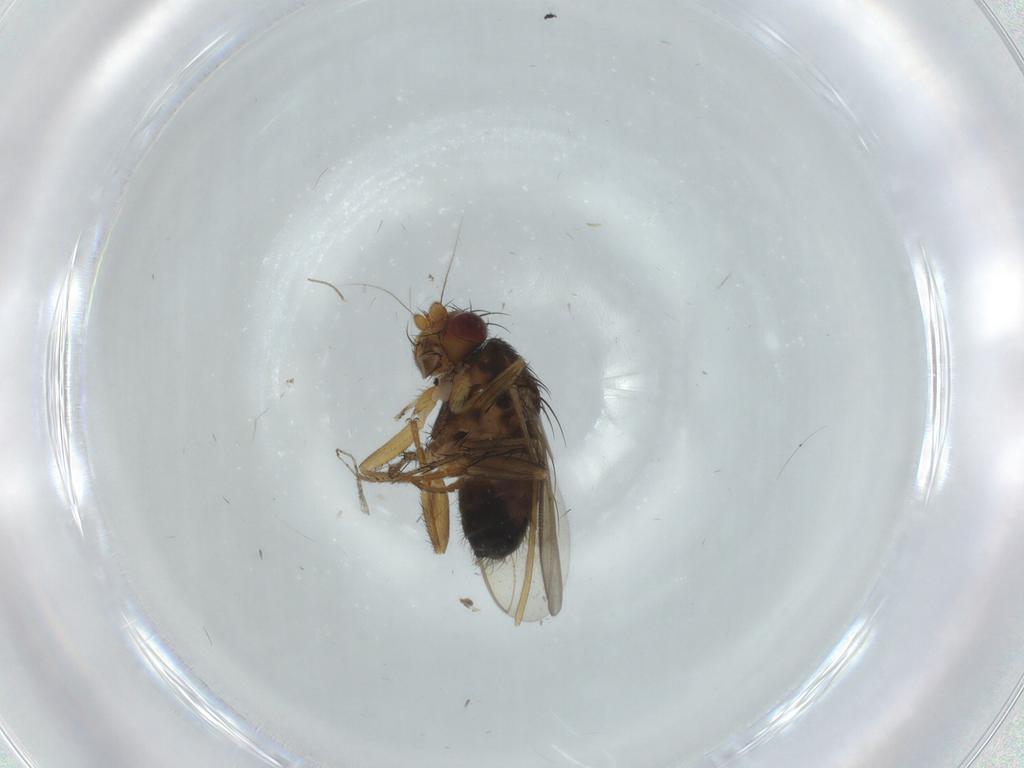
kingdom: Animalia
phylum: Arthropoda
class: Insecta
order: Diptera
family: Sphaeroceridae
